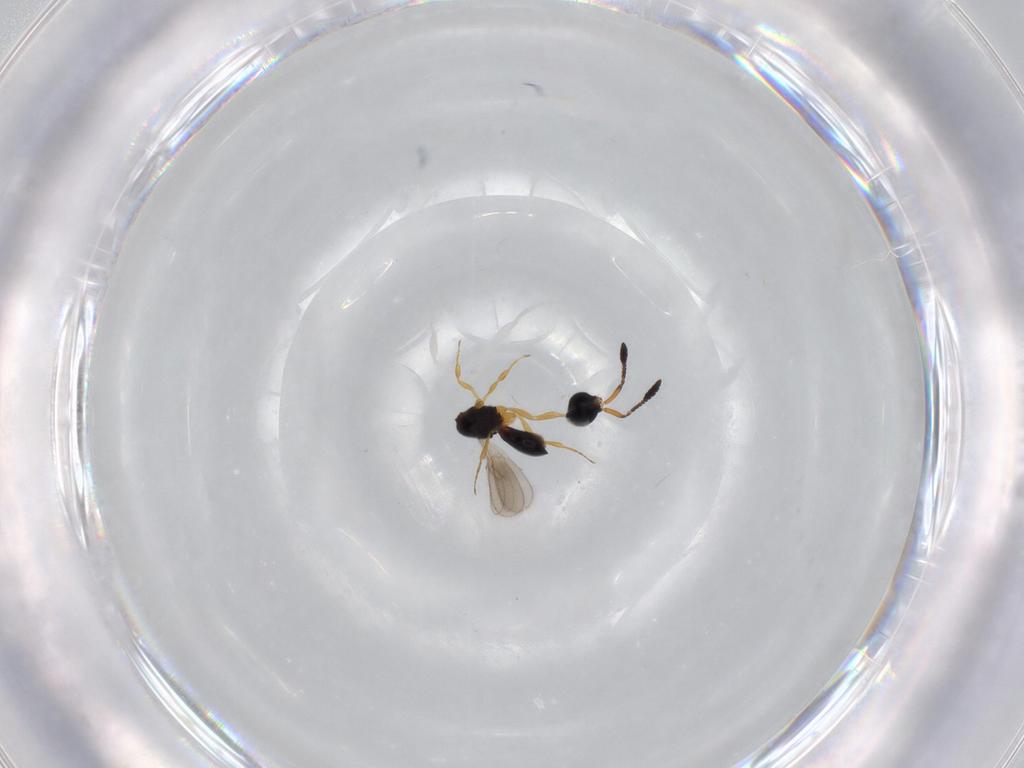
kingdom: Animalia
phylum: Arthropoda
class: Insecta
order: Hymenoptera
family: Scelionidae
